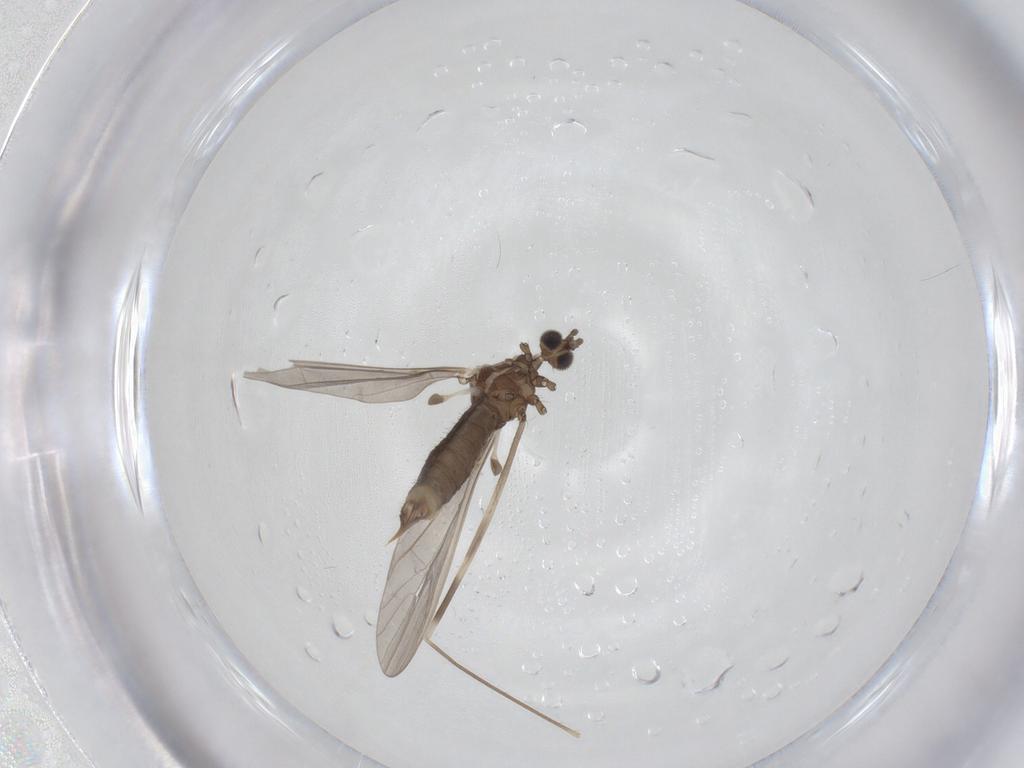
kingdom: Animalia
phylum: Arthropoda
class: Insecta
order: Diptera
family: Limoniidae
